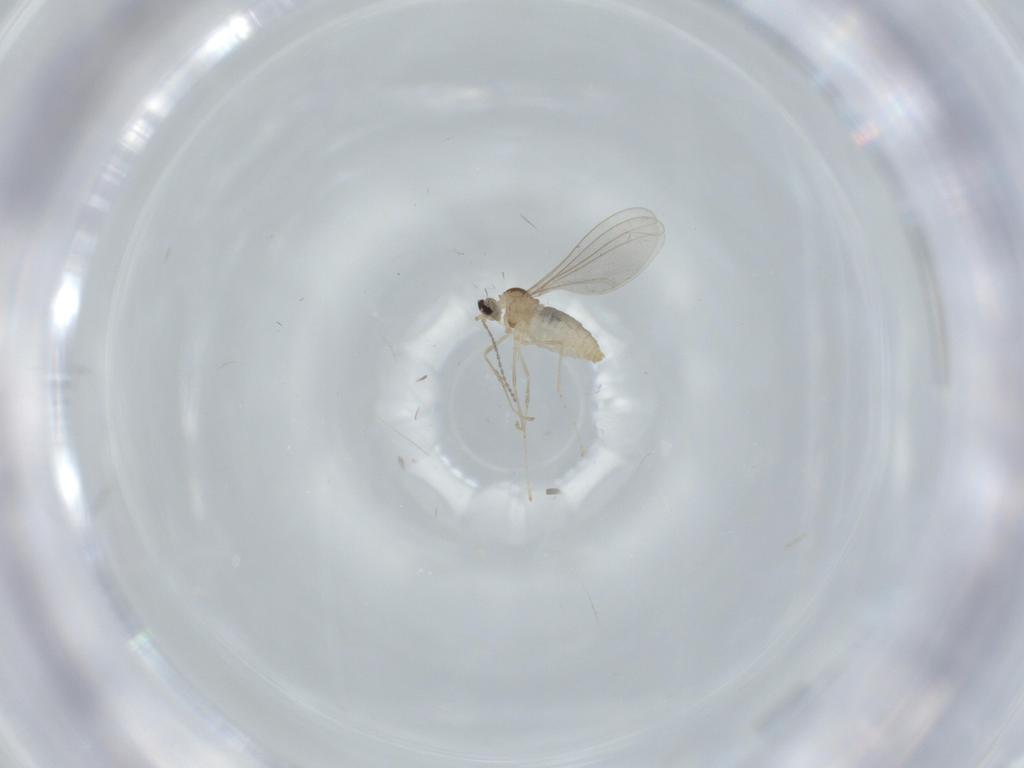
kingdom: Animalia
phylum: Arthropoda
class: Insecta
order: Diptera
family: Cecidomyiidae
